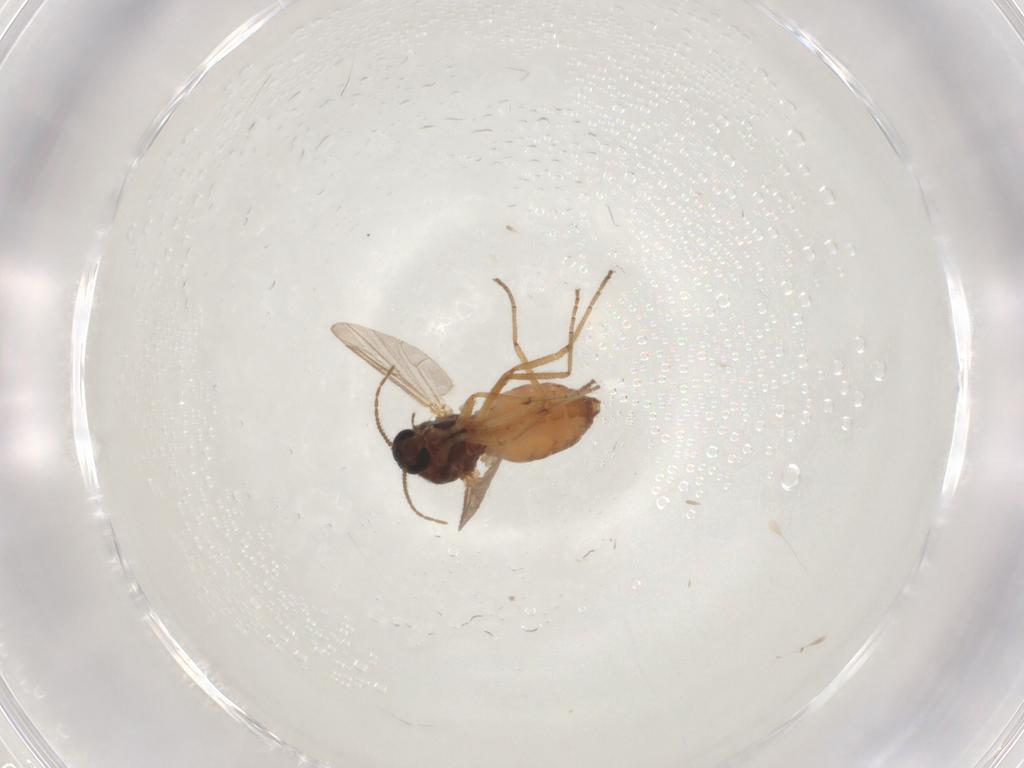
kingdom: Animalia
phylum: Arthropoda
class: Insecta
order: Diptera
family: Ceratopogonidae
